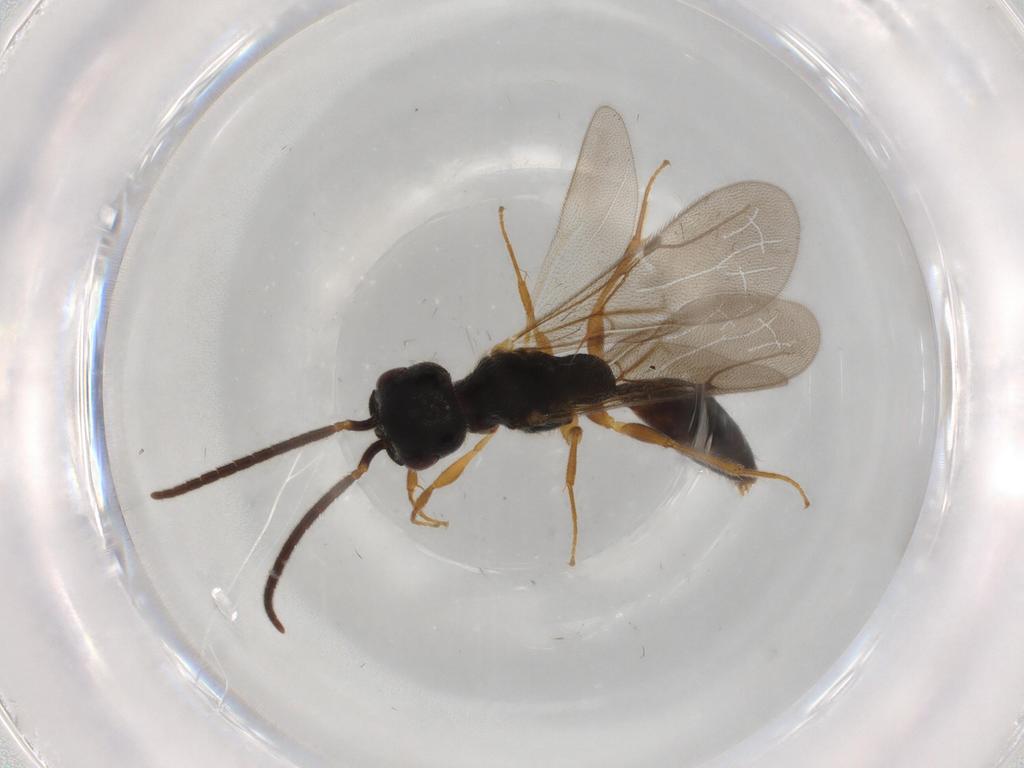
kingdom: Animalia
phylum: Arthropoda
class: Insecta
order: Hymenoptera
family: Bethylidae
